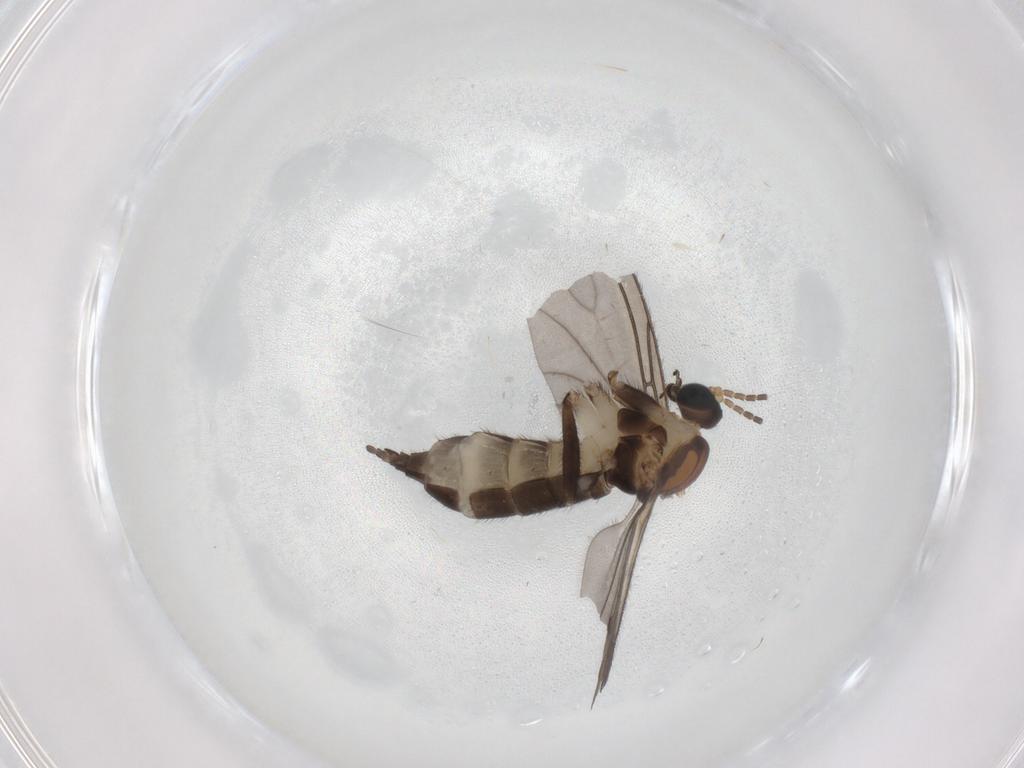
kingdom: Animalia
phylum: Arthropoda
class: Insecta
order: Diptera
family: Sciaridae
